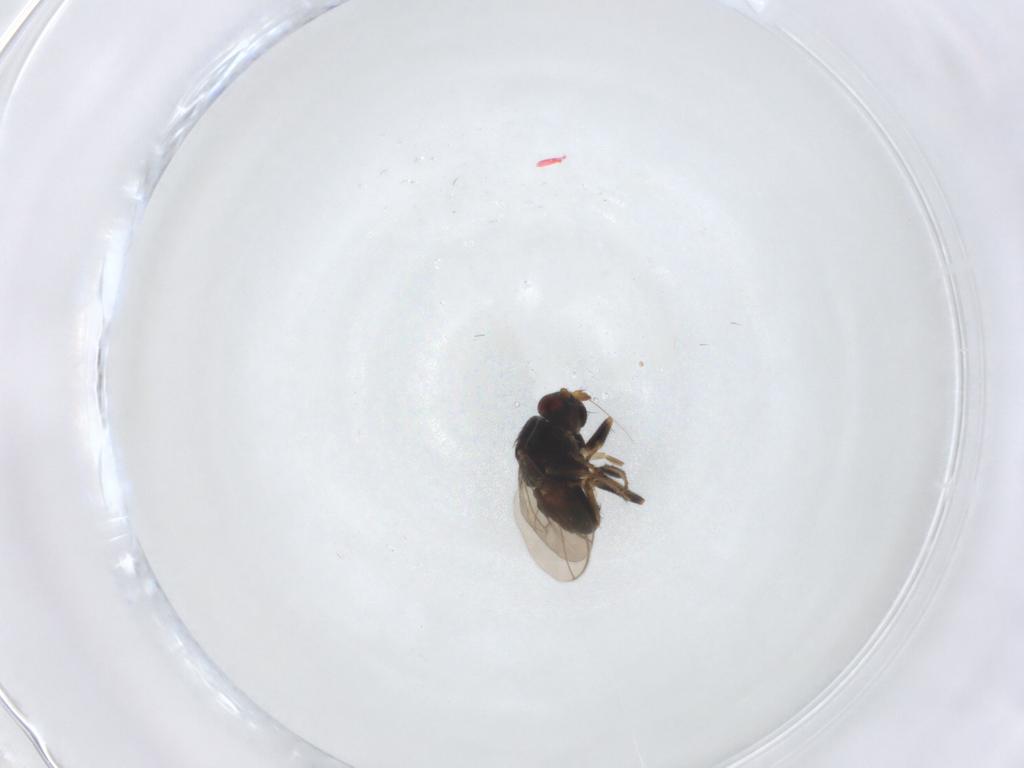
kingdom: Animalia
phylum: Arthropoda
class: Insecta
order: Diptera
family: Sphaeroceridae
